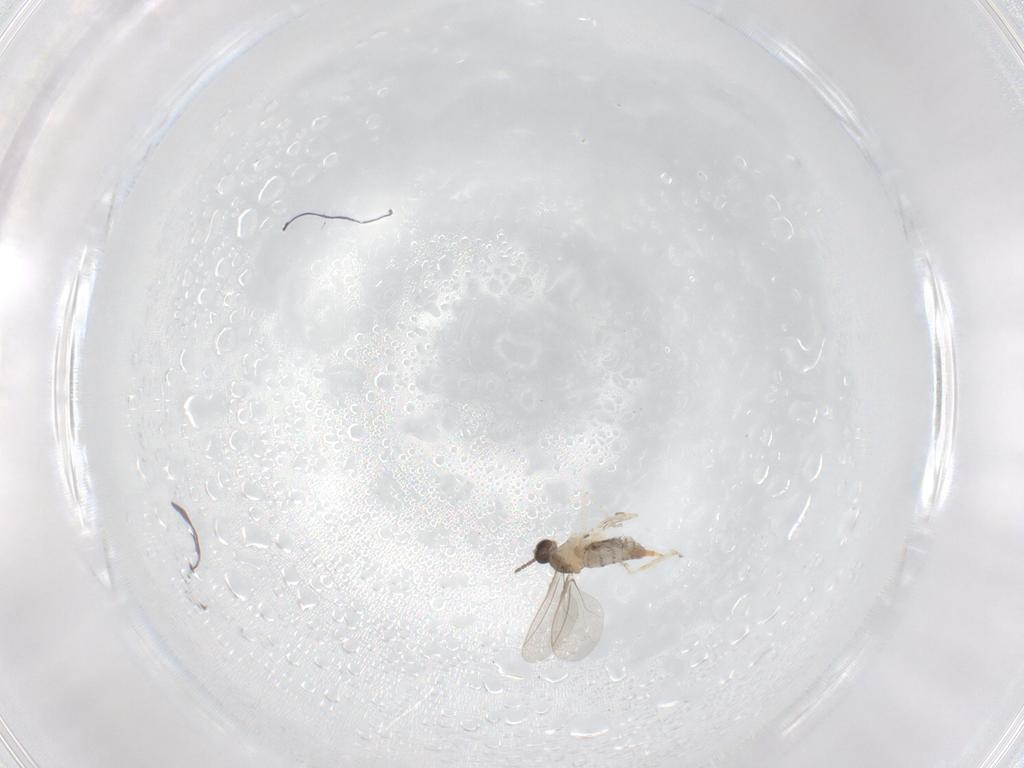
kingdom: Animalia
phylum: Arthropoda
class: Insecta
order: Diptera
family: Cecidomyiidae
